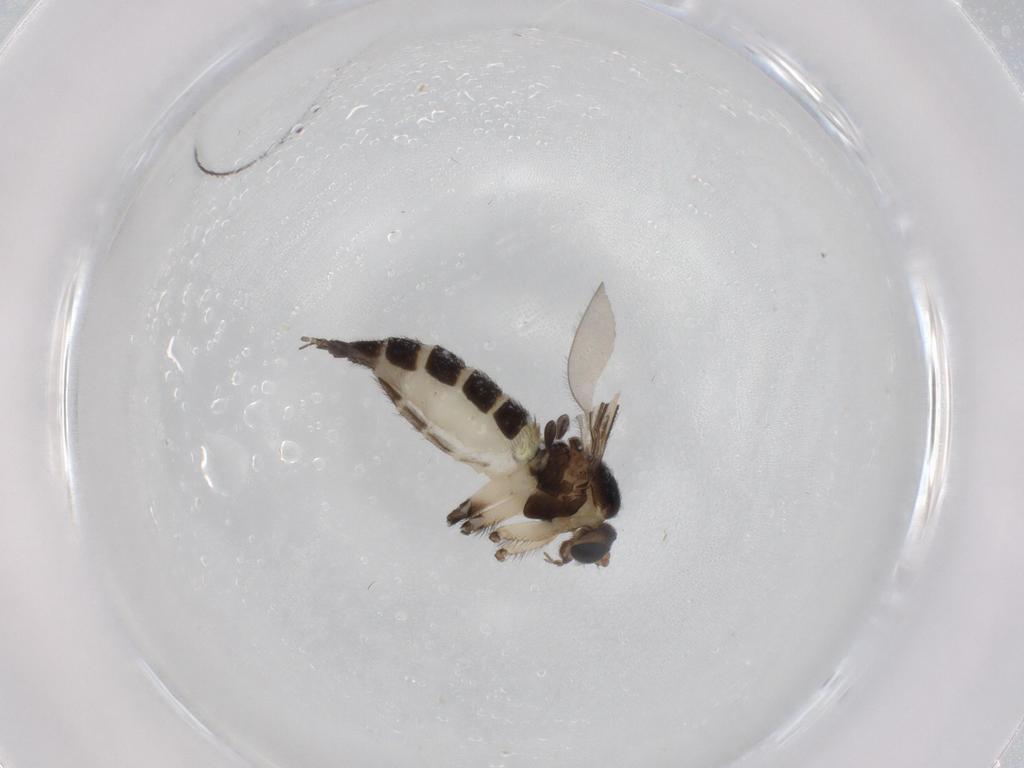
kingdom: Animalia
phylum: Arthropoda
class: Insecta
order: Diptera
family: Sciaridae
